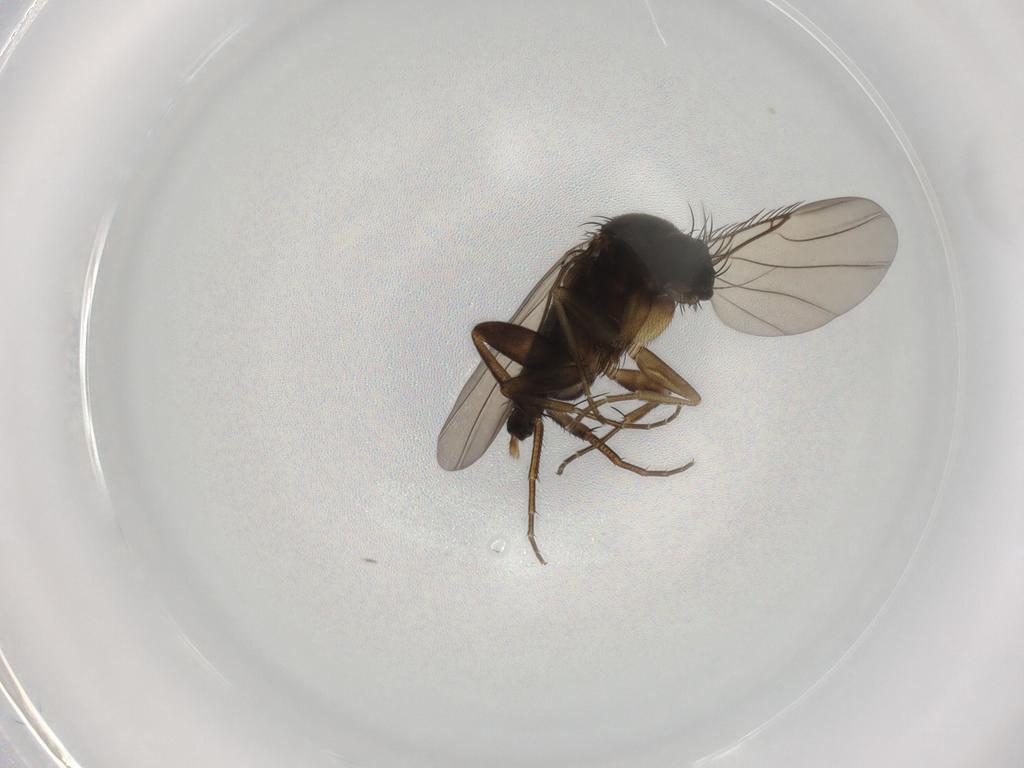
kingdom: Animalia
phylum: Arthropoda
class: Insecta
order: Diptera
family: Phoridae
